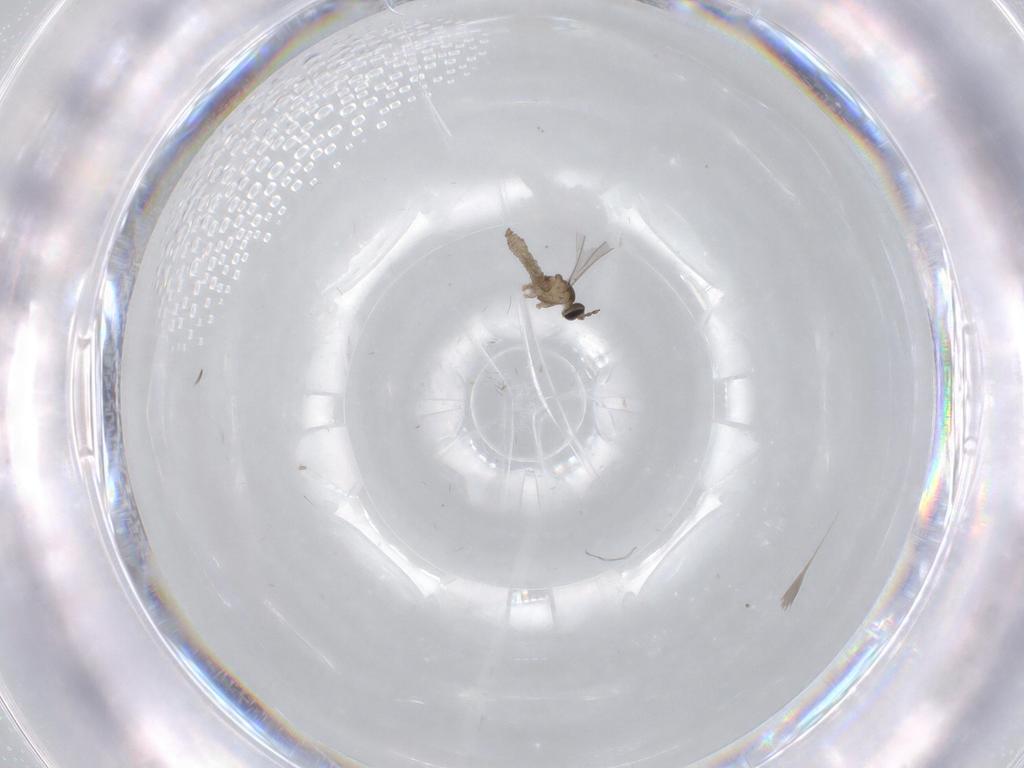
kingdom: Animalia
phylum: Arthropoda
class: Insecta
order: Diptera
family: Cecidomyiidae
